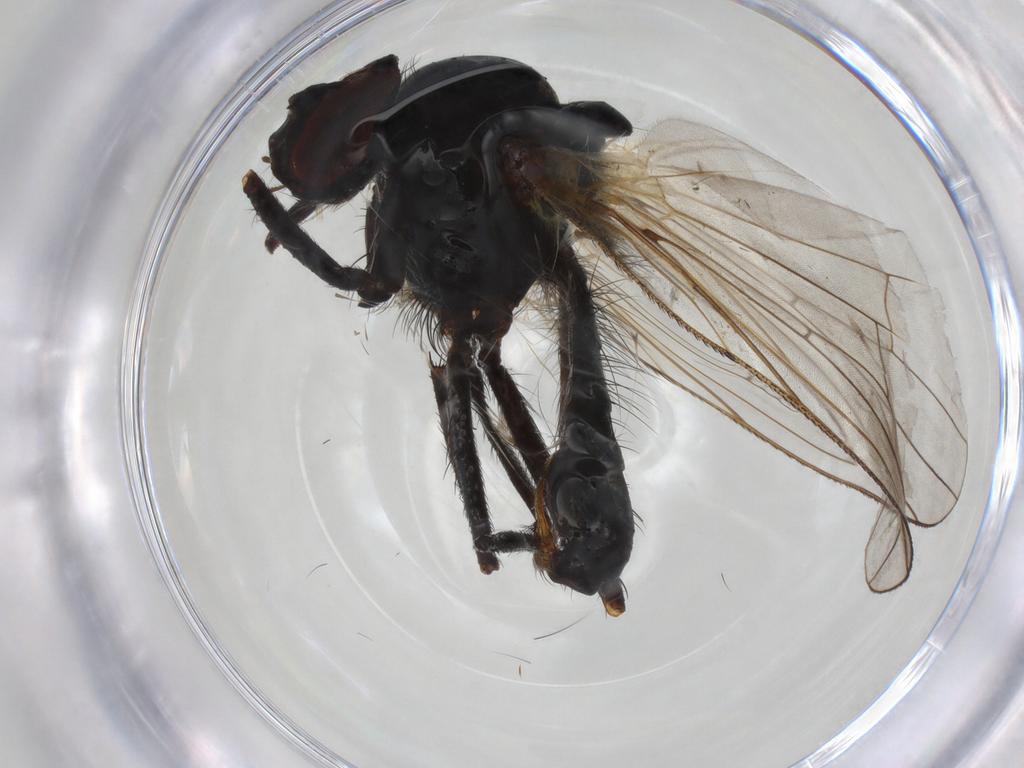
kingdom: Animalia
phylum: Arthropoda
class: Insecta
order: Diptera
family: Anthomyiidae
